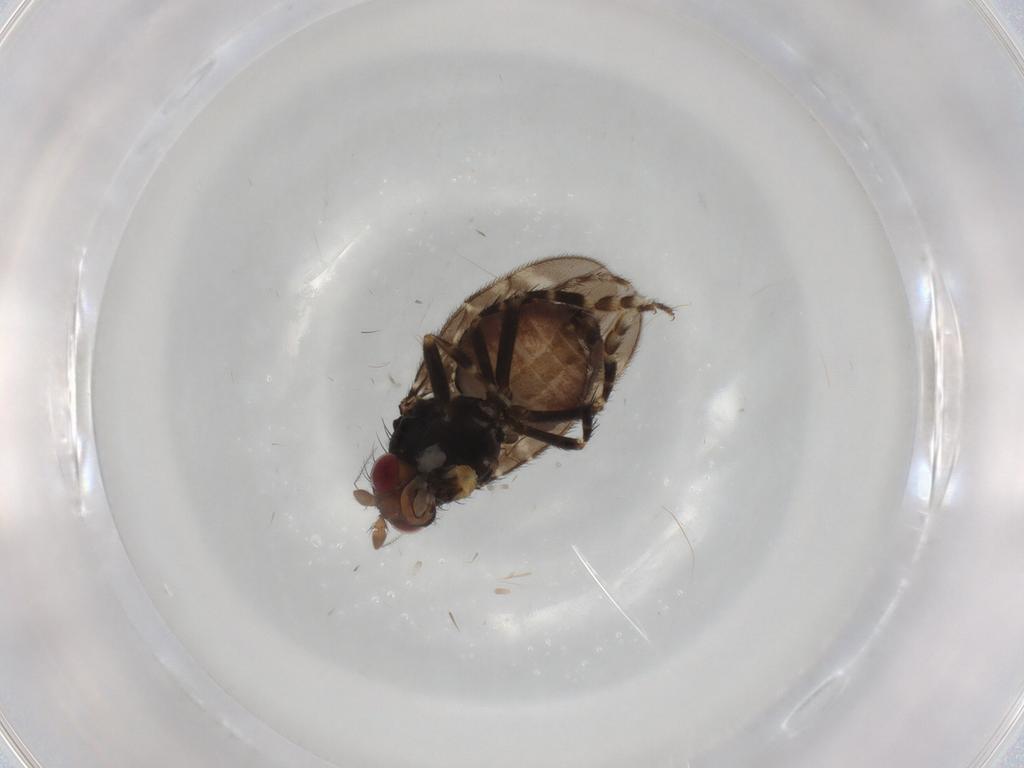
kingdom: Animalia
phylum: Arthropoda
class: Insecta
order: Diptera
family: Sphaeroceridae
